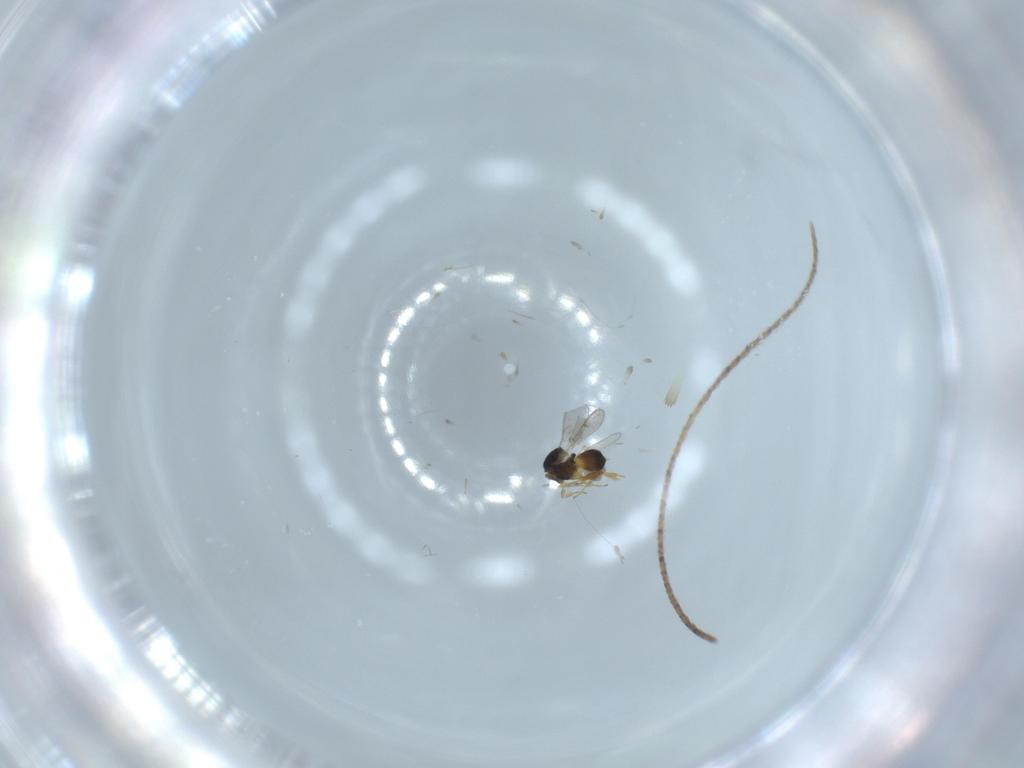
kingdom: Animalia
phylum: Arthropoda
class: Insecta
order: Hymenoptera
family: Scelionidae
